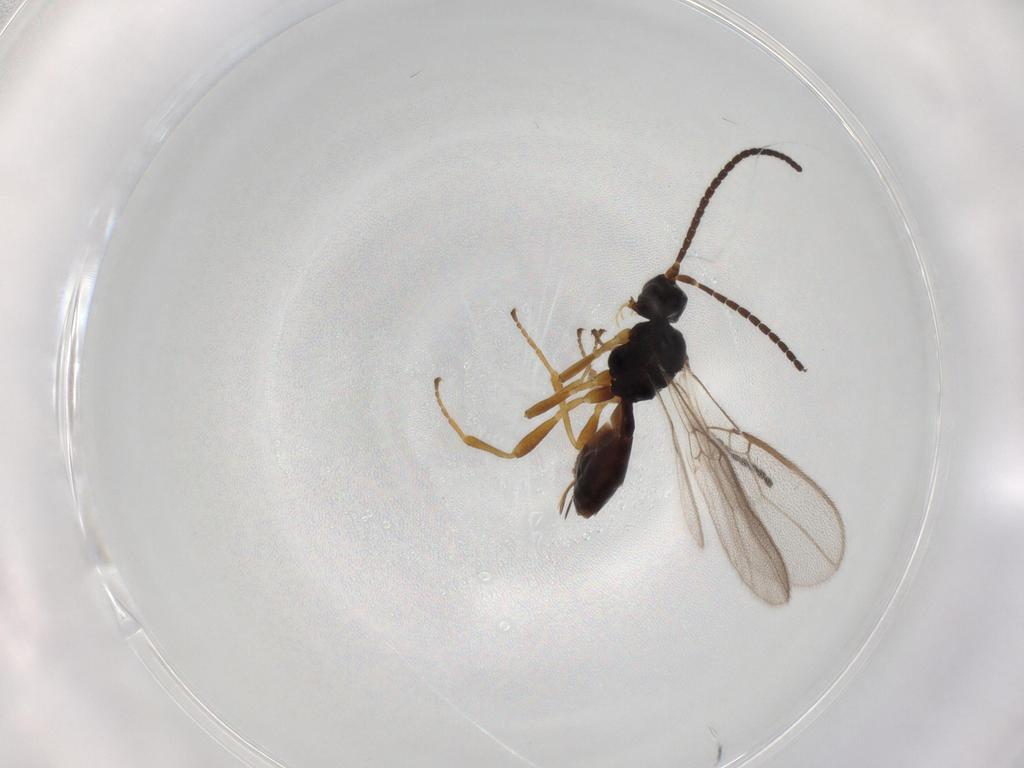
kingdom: Animalia
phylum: Arthropoda
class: Insecta
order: Hymenoptera
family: Braconidae
